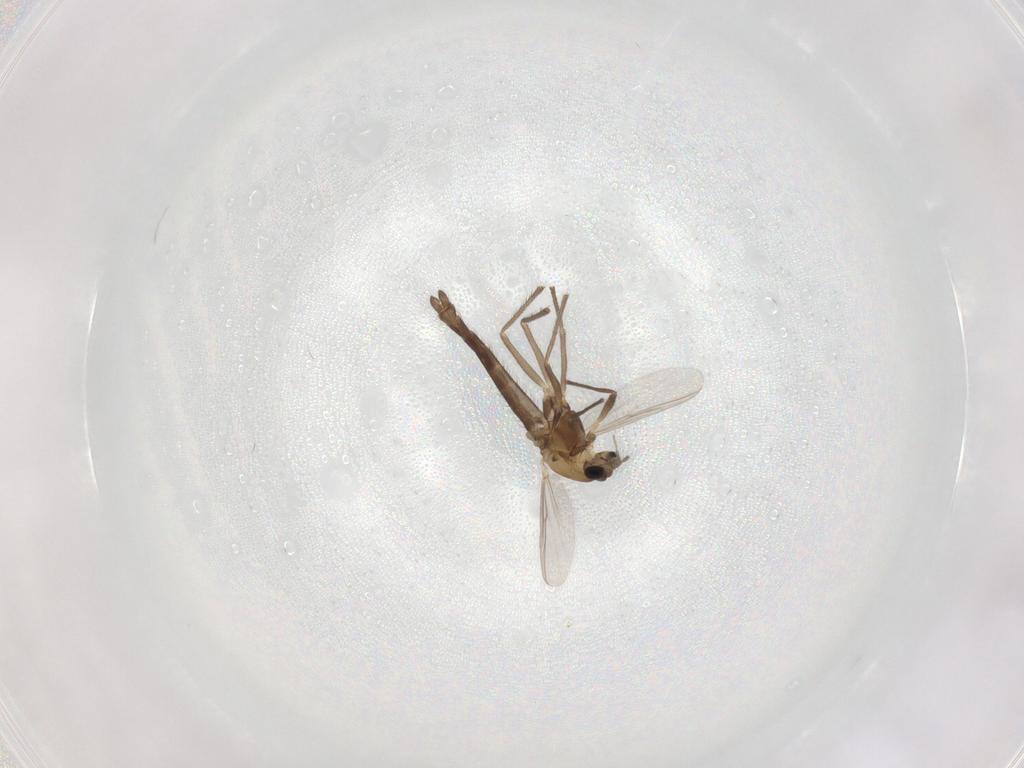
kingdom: Animalia
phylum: Arthropoda
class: Insecta
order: Diptera
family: Chironomidae
